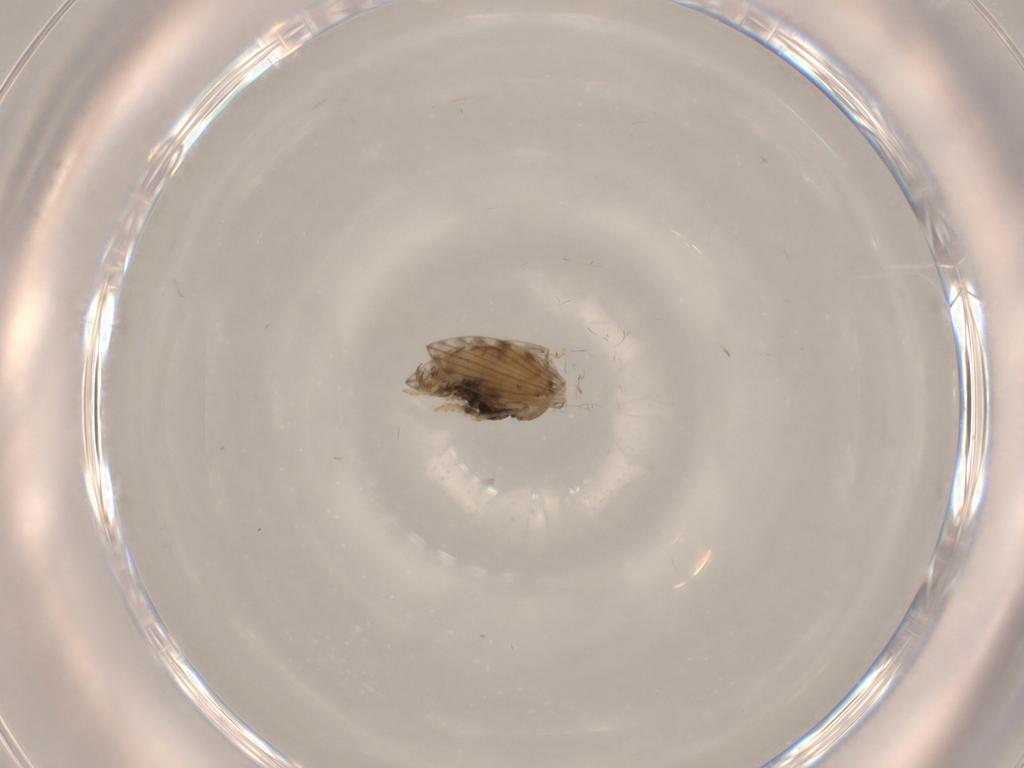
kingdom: Animalia
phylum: Arthropoda
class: Insecta
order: Diptera
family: Psychodidae
